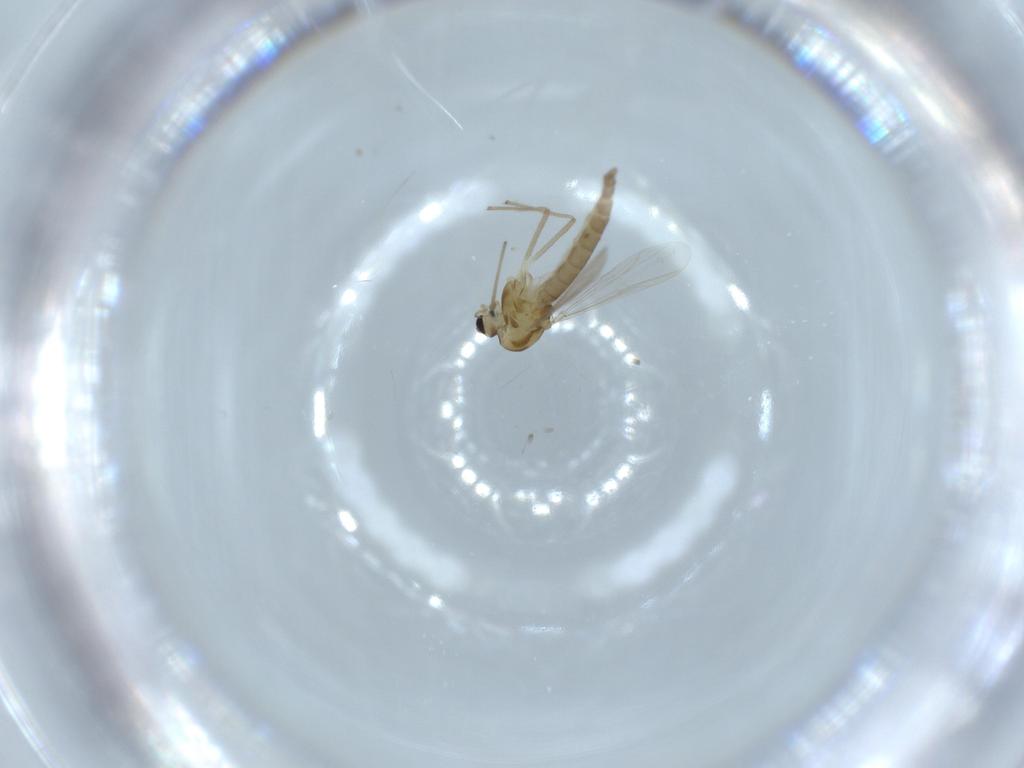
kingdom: Animalia
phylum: Arthropoda
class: Insecta
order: Diptera
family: Chironomidae
